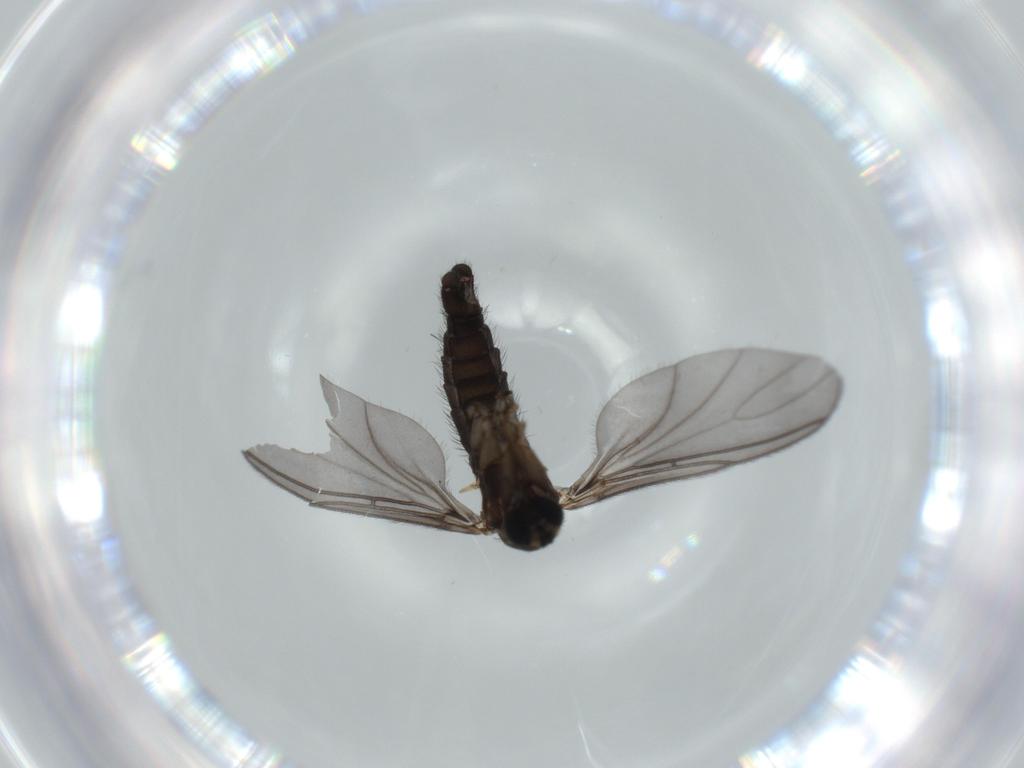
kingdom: Animalia
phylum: Arthropoda
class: Insecta
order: Diptera
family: Sciaridae
